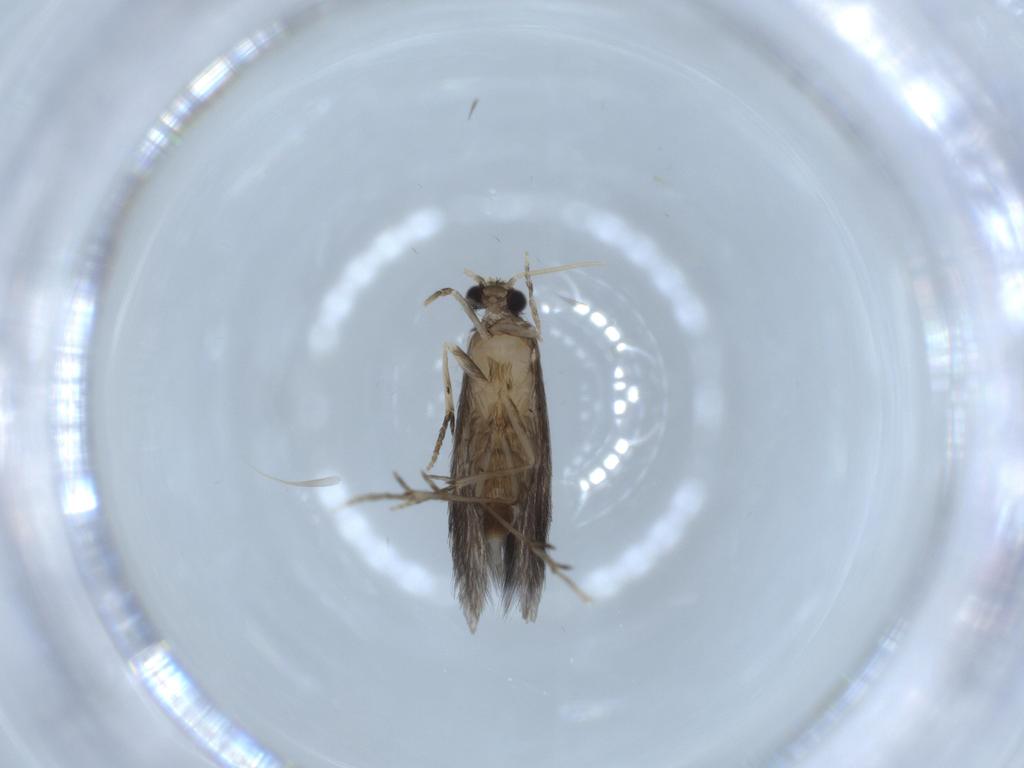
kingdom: Animalia
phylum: Arthropoda
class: Insecta
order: Trichoptera
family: Hydroptilidae
